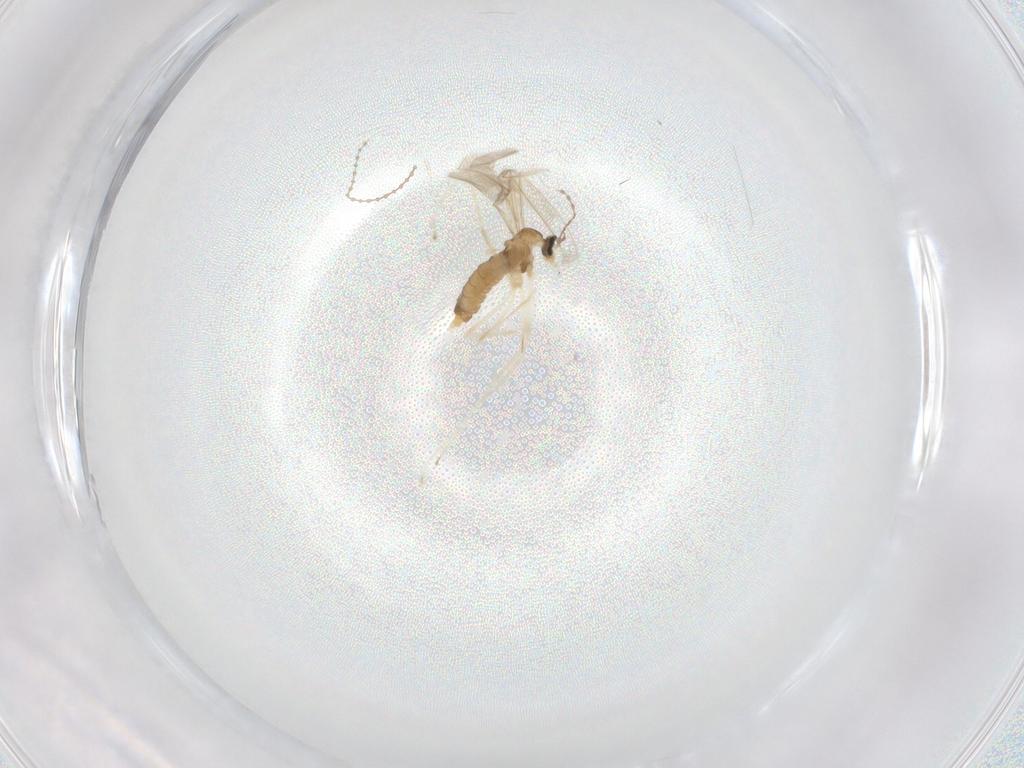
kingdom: Animalia
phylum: Arthropoda
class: Insecta
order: Diptera
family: Cecidomyiidae
